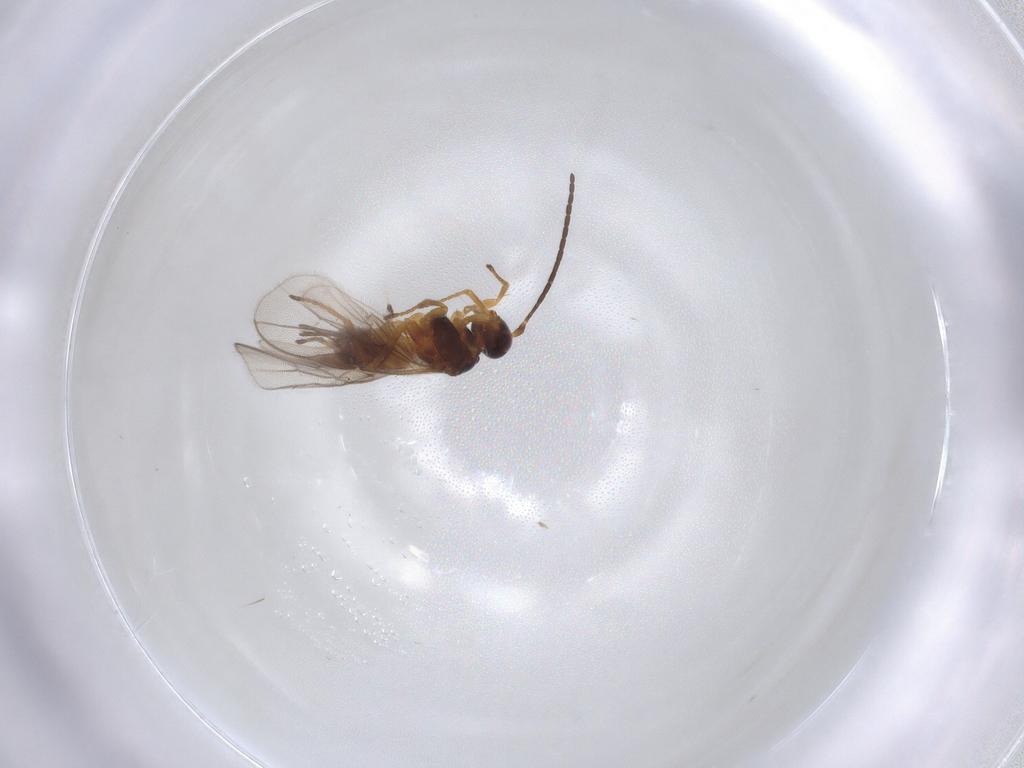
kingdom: Animalia
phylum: Arthropoda
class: Insecta
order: Hymenoptera
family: Braconidae
